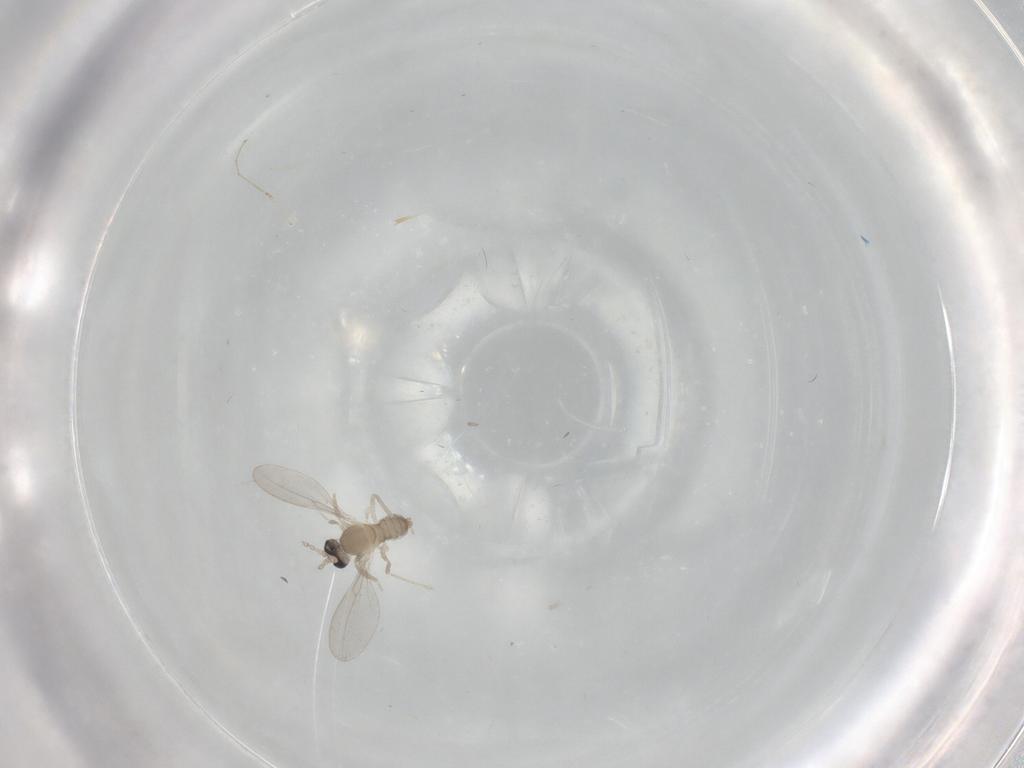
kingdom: Animalia
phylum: Arthropoda
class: Insecta
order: Diptera
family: Cecidomyiidae
